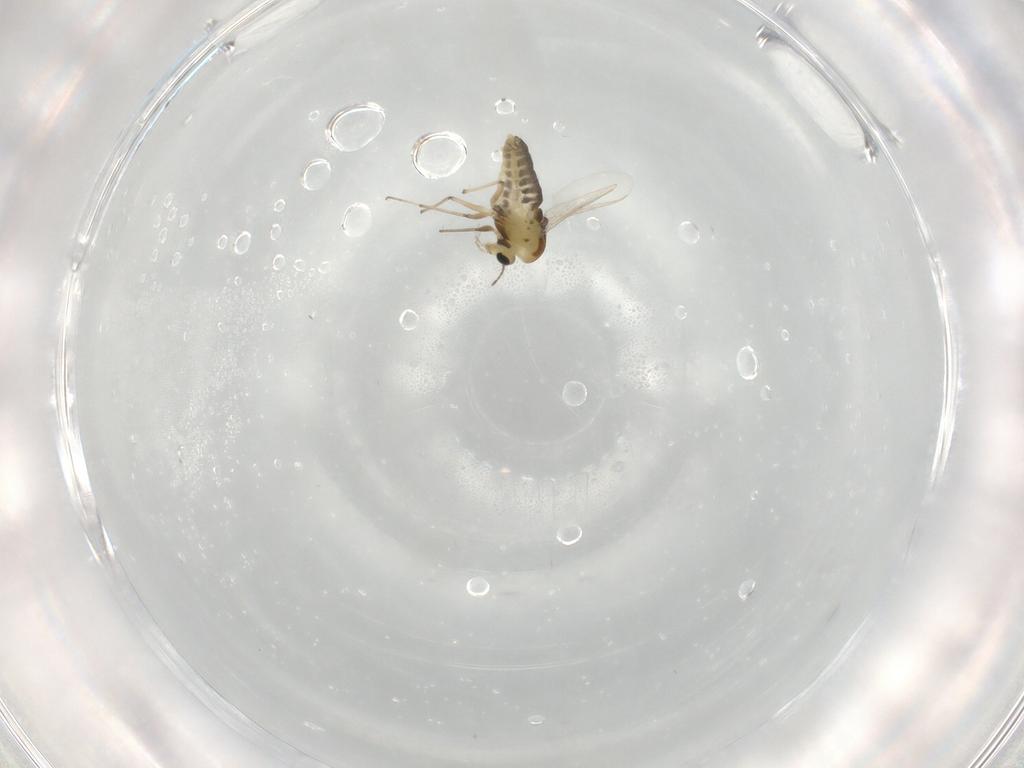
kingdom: Animalia
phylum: Arthropoda
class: Insecta
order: Diptera
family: Chironomidae
